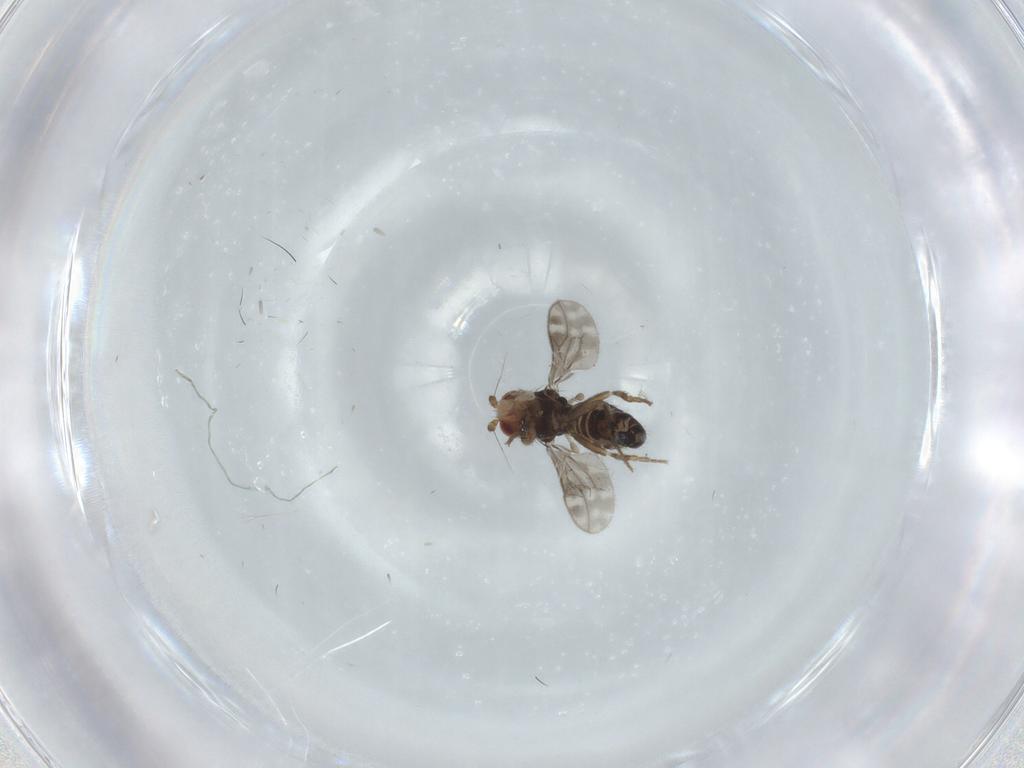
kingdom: Animalia
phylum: Arthropoda
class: Insecta
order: Diptera
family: Sphaeroceridae
